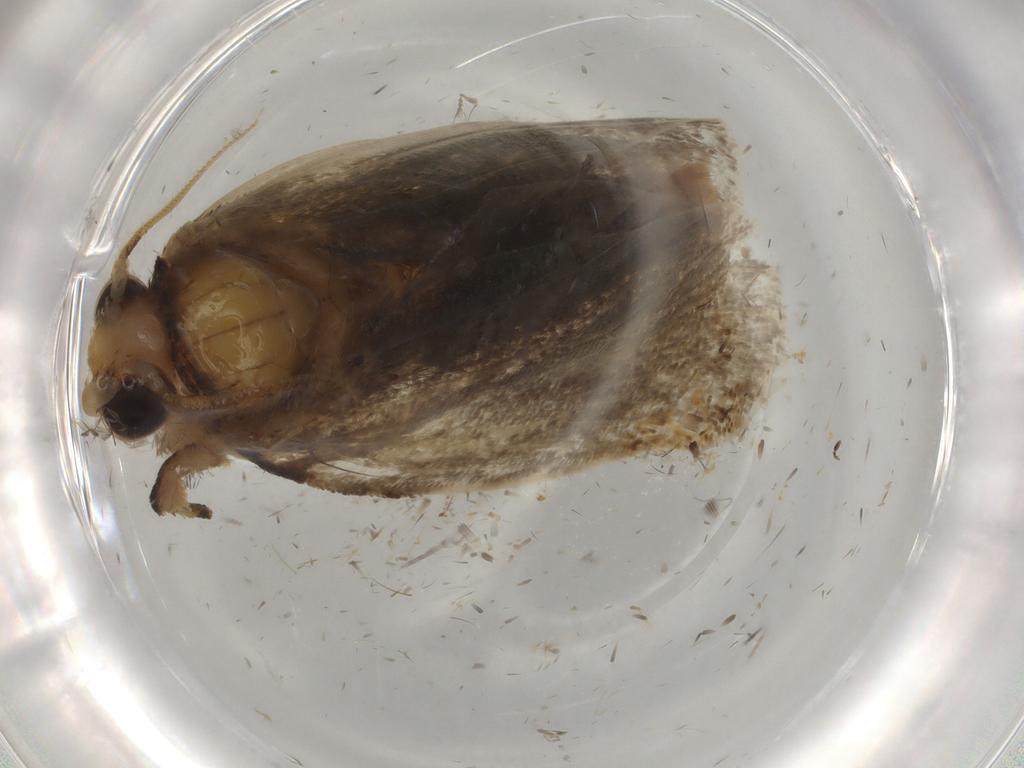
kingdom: Animalia
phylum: Arthropoda
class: Insecta
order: Lepidoptera
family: Tineidae
